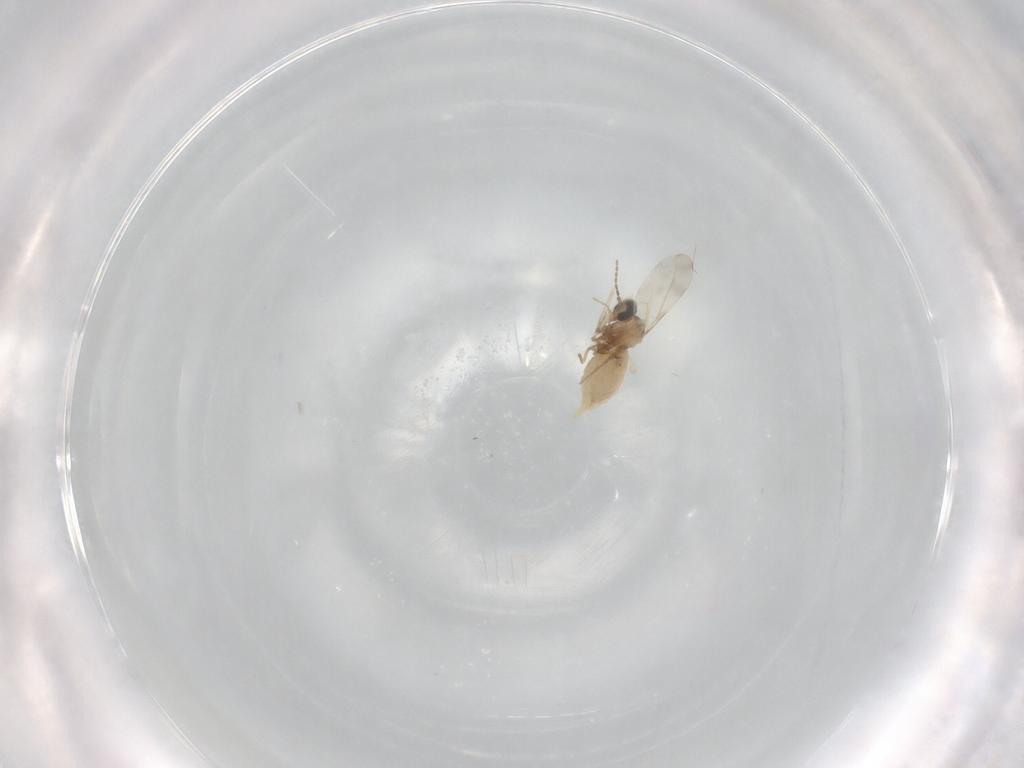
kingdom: Animalia
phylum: Arthropoda
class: Insecta
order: Diptera
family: Cecidomyiidae
